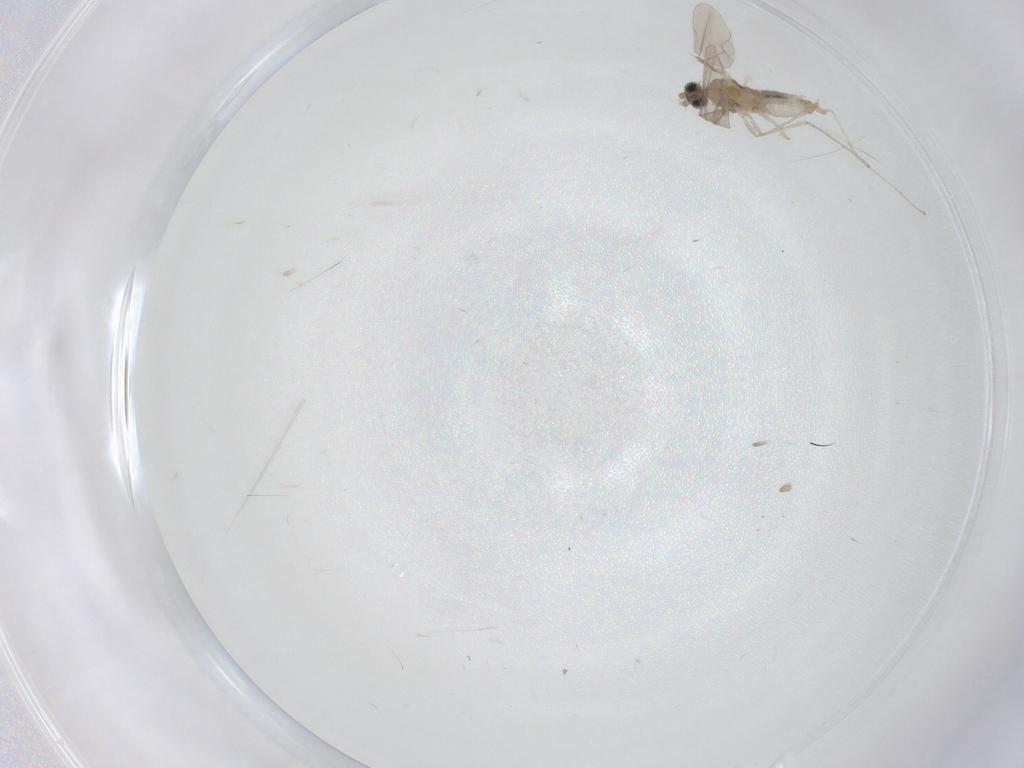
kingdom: Animalia
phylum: Arthropoda
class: Insecta
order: Diptera
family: Cecidomyiidae
